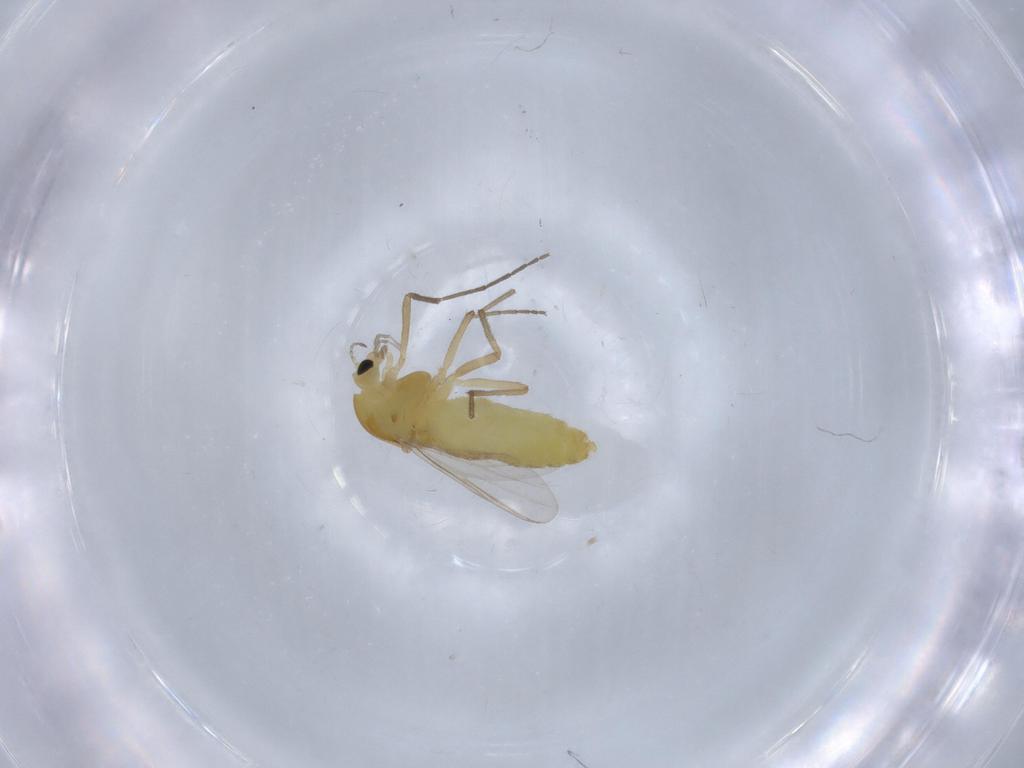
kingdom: Animalia
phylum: Arthropoda
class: Insecta
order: Diptera
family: Chironomidae
